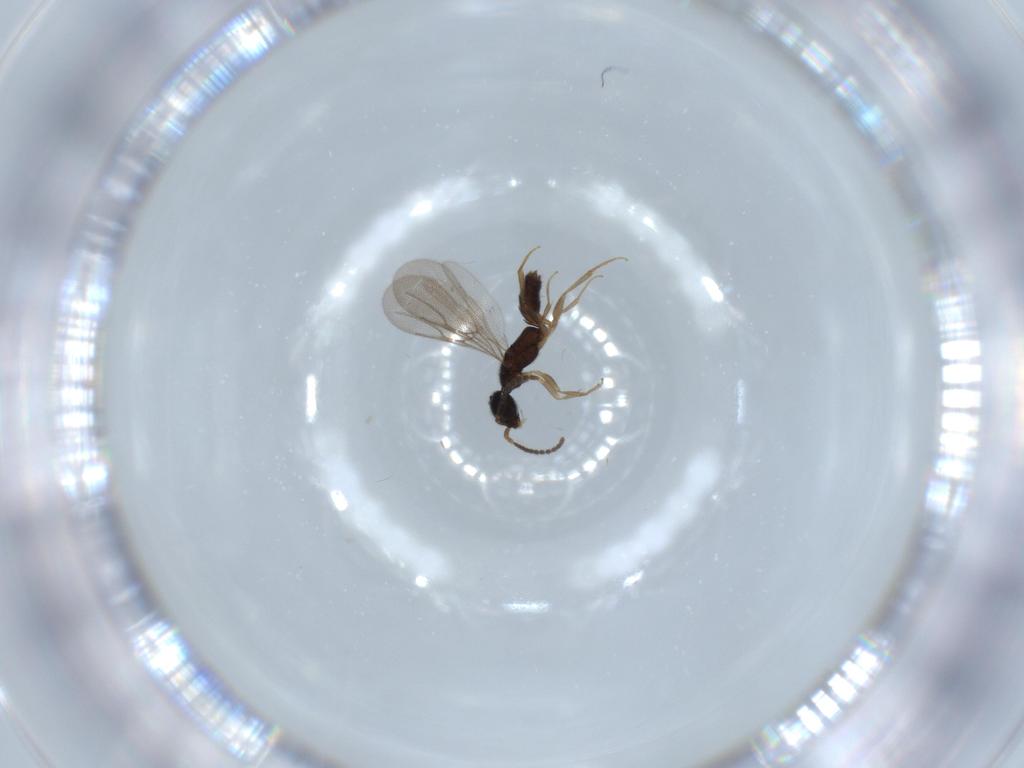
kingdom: Animalia
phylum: Arthropoda
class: Insecta
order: Hymenoptera
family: Bethylidae
